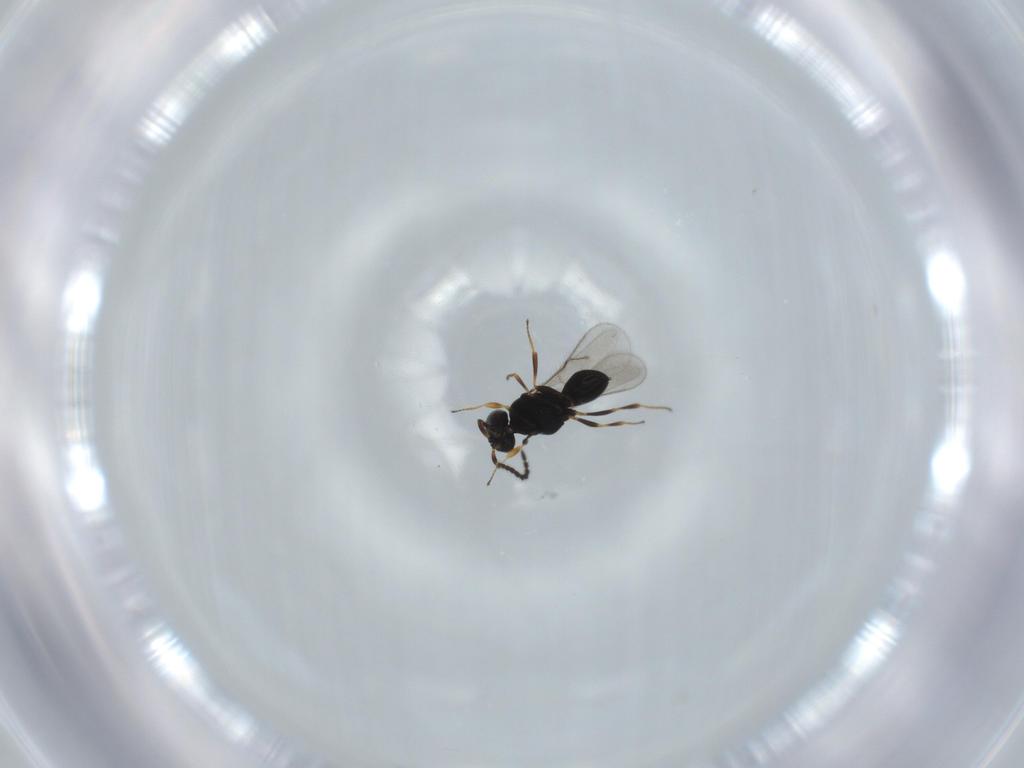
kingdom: Animalia
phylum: Arthropoda
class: Insecta
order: Hymenoptera
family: Scelionidae
